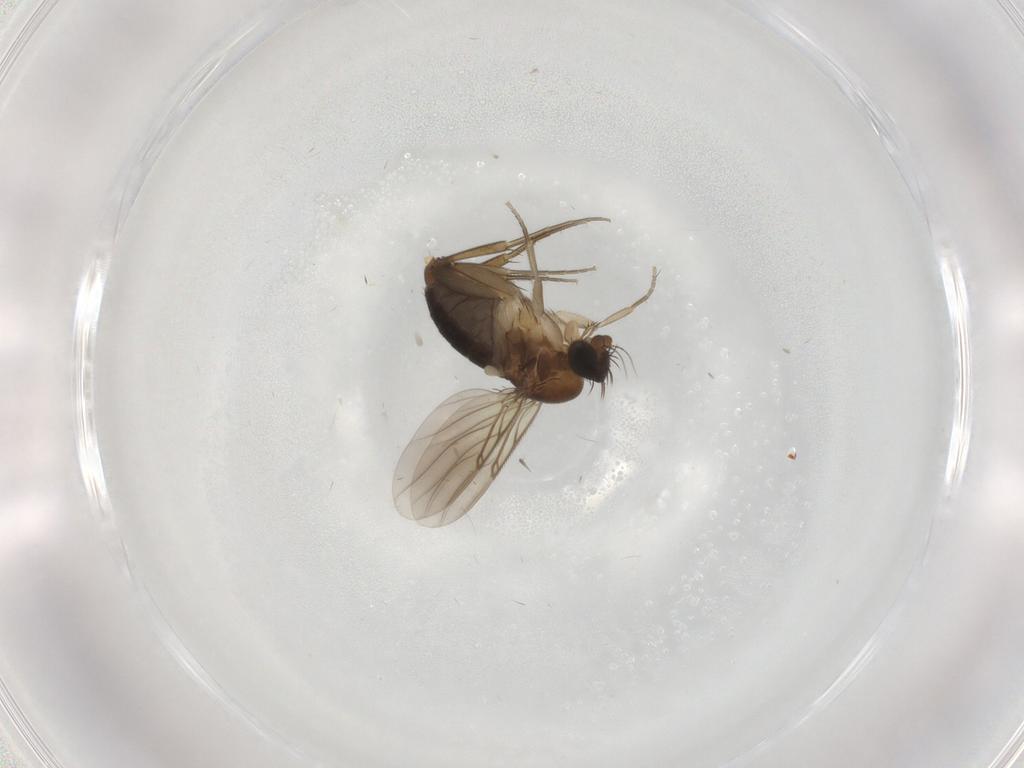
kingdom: Animalia
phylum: Arthropoda
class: Insecta
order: Diptera
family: Phoridae
